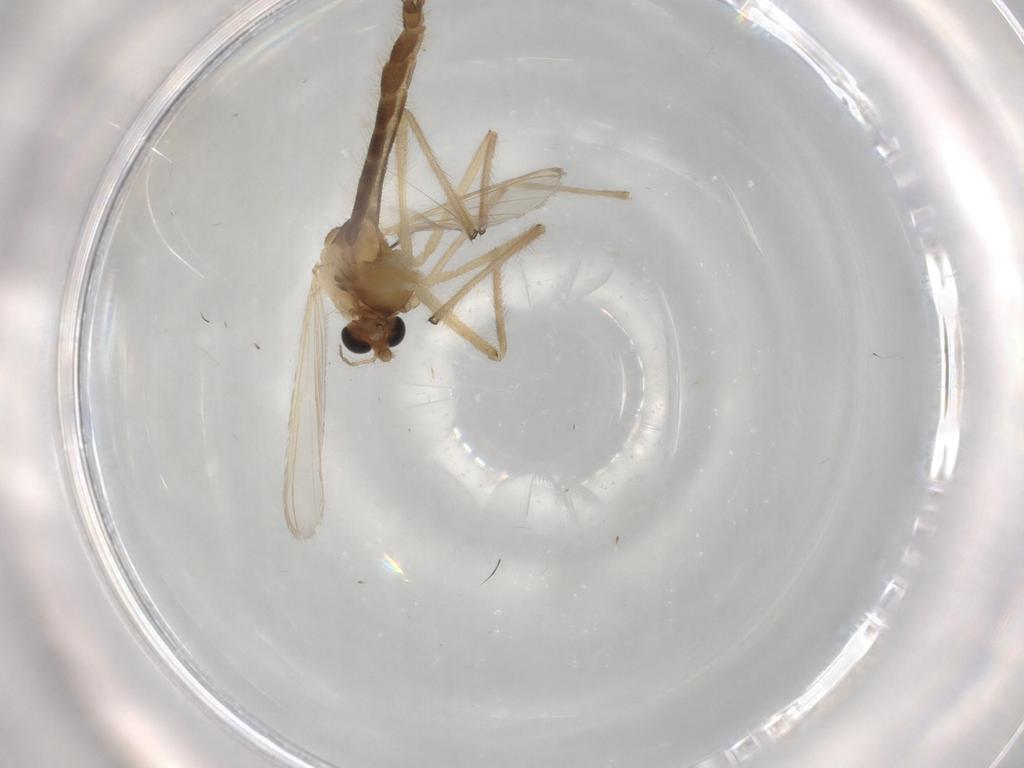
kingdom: Animalia
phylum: Arthropoda
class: Insecta
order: Diptera
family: Chironomidae
